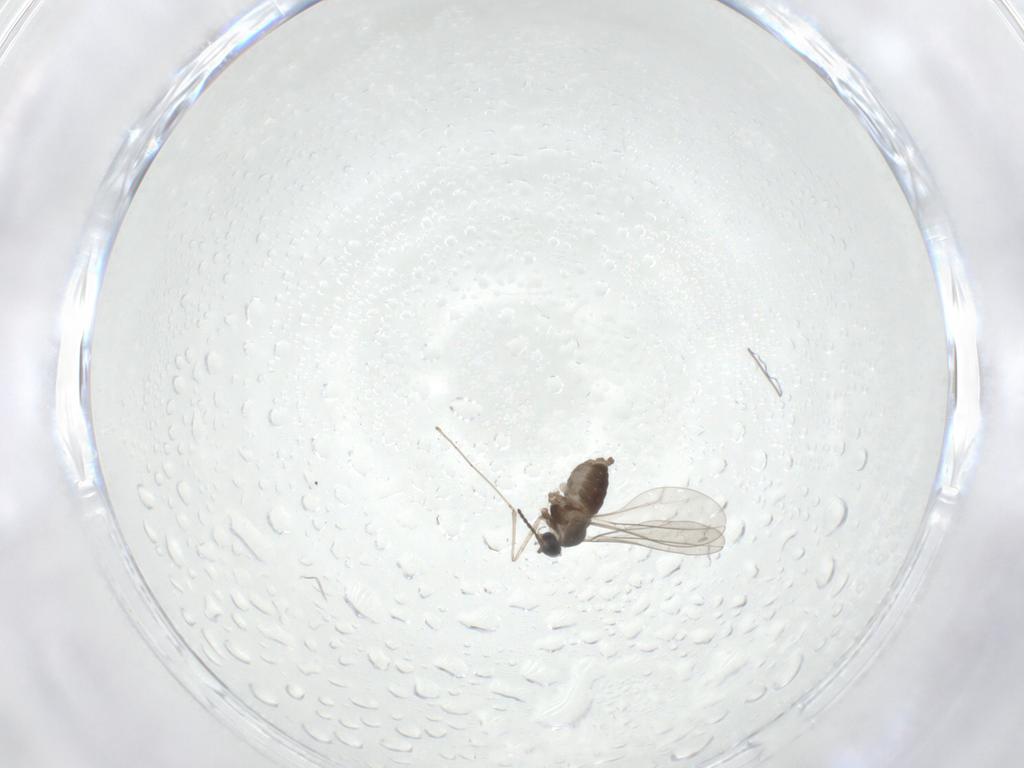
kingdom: Animalia
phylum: Arthropoda
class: Insecta
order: Diptera
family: Cecidomyiidae
